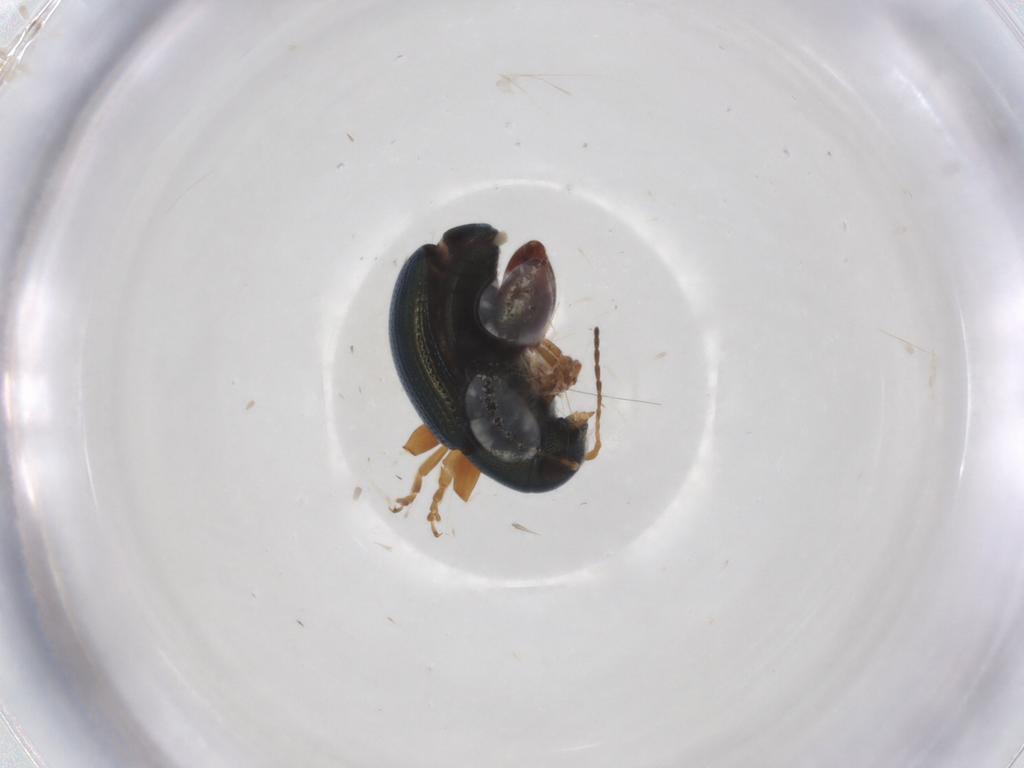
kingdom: Animalia
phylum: Arthropoda
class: Insecta
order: Coleoptera
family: Chrysomelidae
